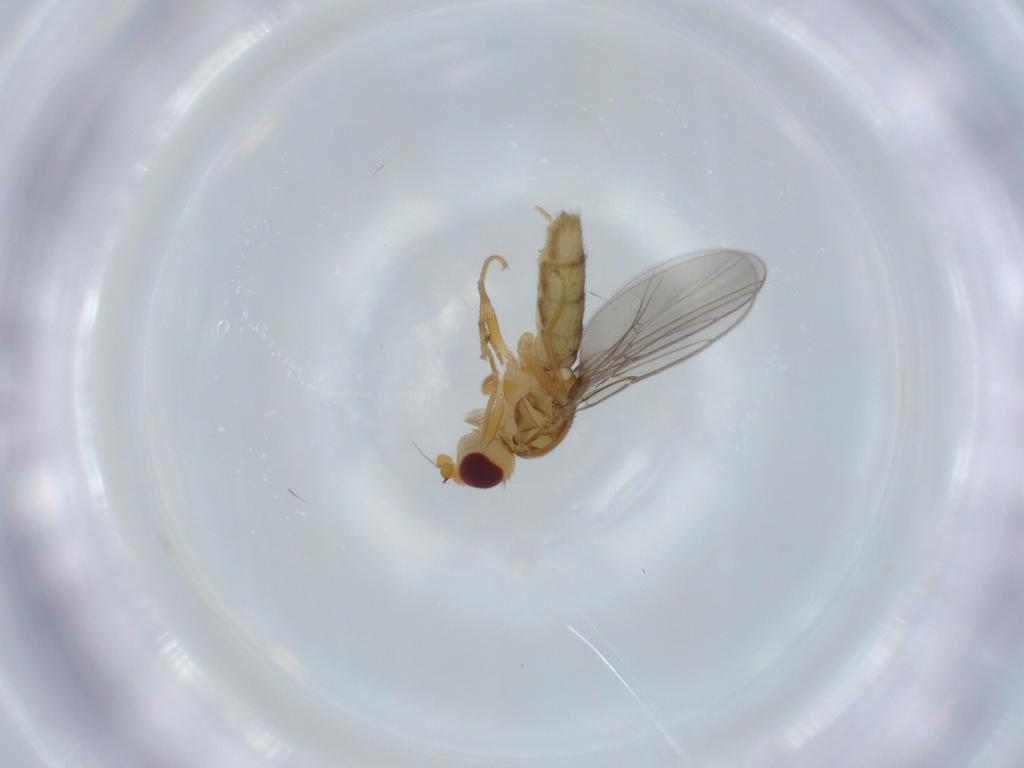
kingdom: Animalia
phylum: Arthropoda
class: Insecta
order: Diptera
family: Chloropidae
